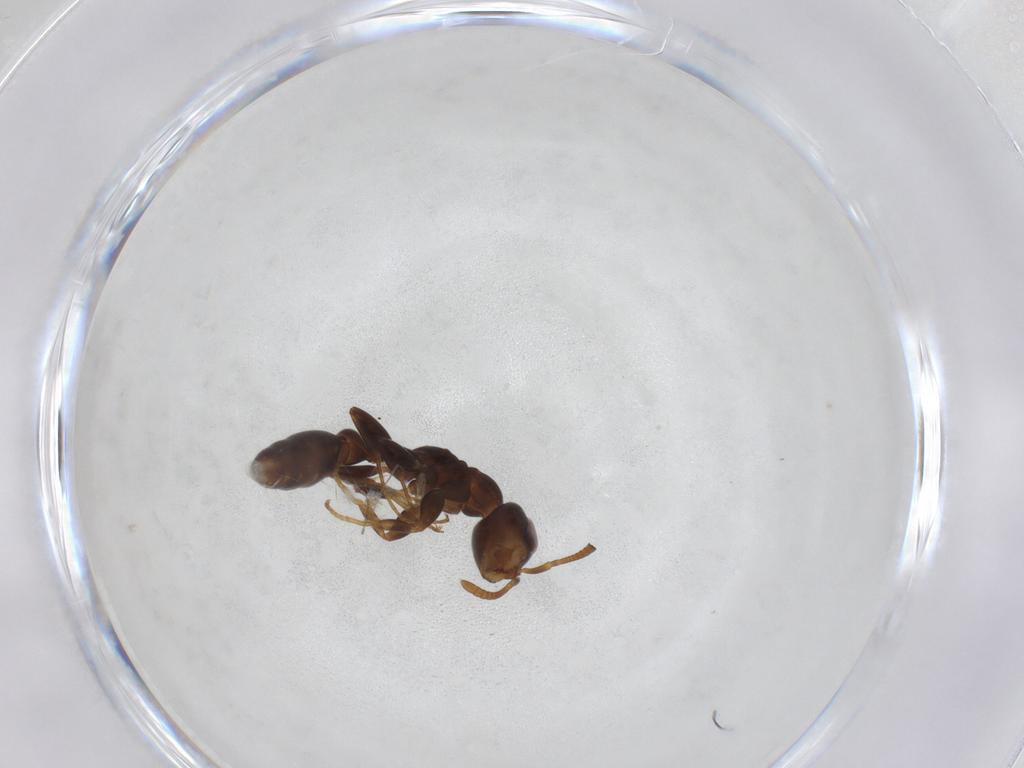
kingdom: Animalia
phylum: Arthropoda
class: Insecta
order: Hymenoptera
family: Formicidae
